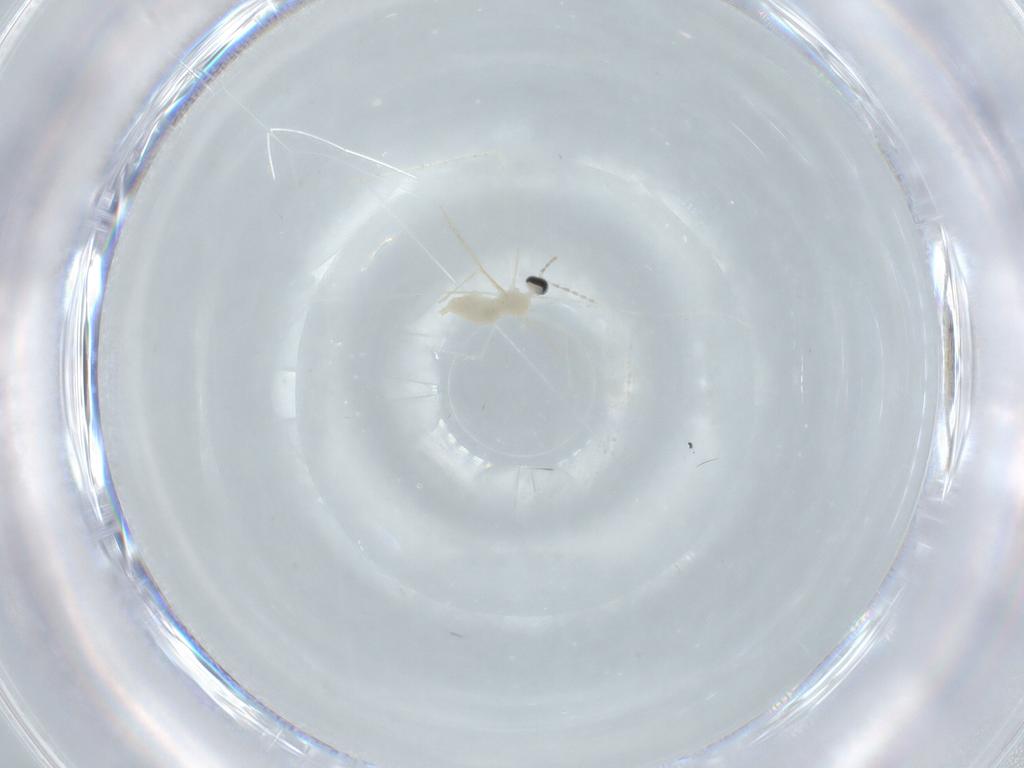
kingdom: Animalia
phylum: Arthropoda
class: Insecta
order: Diptera
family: Cecidomyiidae
